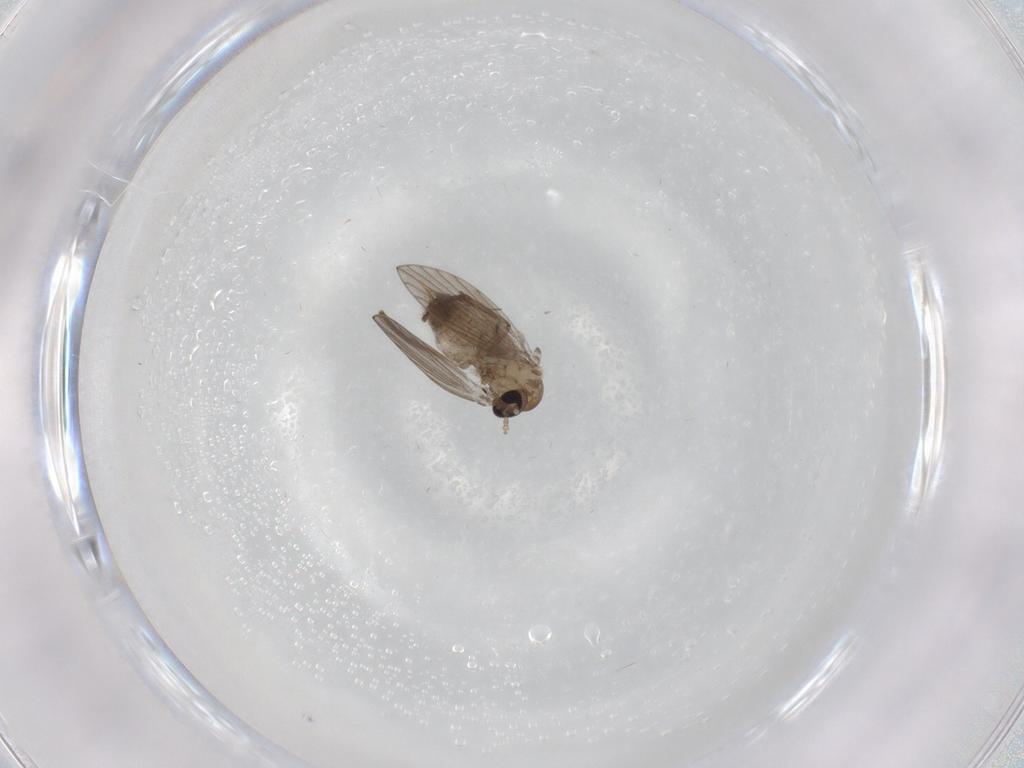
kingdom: Animalia
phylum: Arthropoda
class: Insecta
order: Diptera
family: Psychodidae
